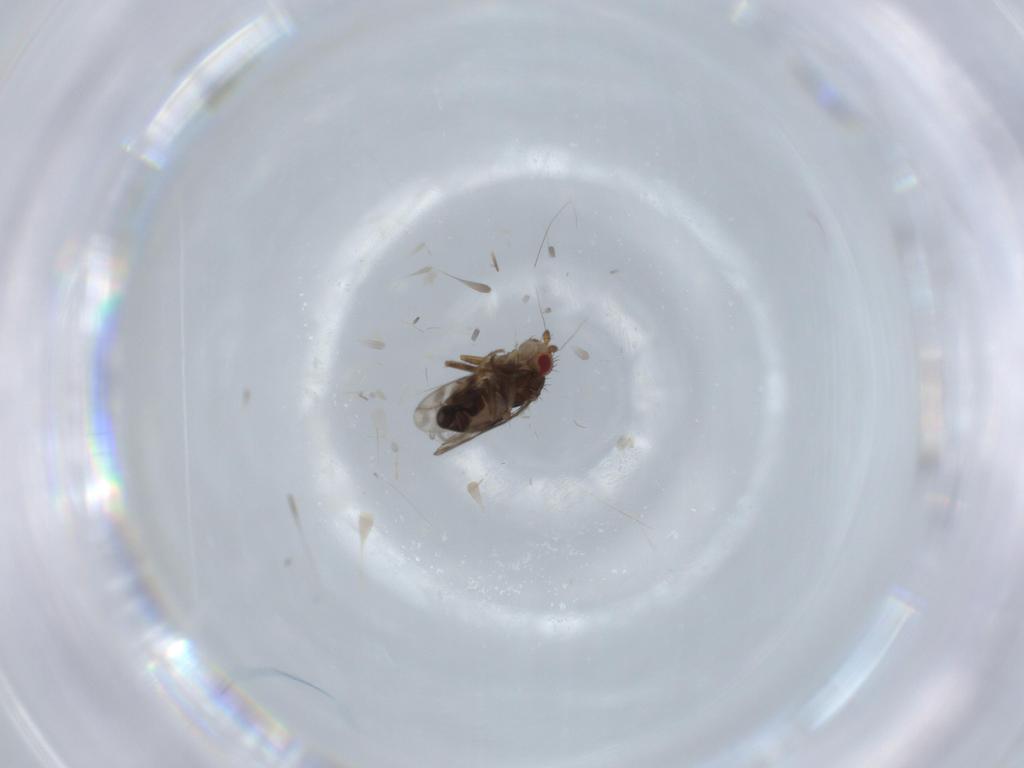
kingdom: Animalia
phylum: Arthropoda
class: Insecta
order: Diptera
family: Sphaeroceridae
